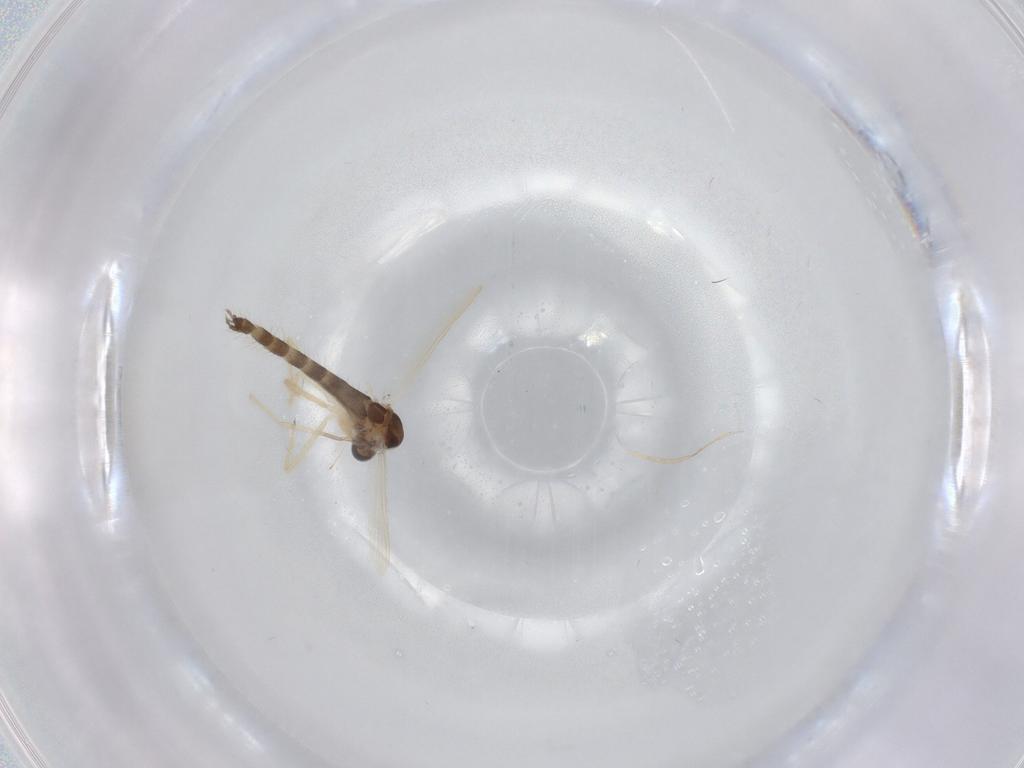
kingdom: Animalia
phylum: Arthropoda
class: Insecta
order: Diptera
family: Chironomidae
